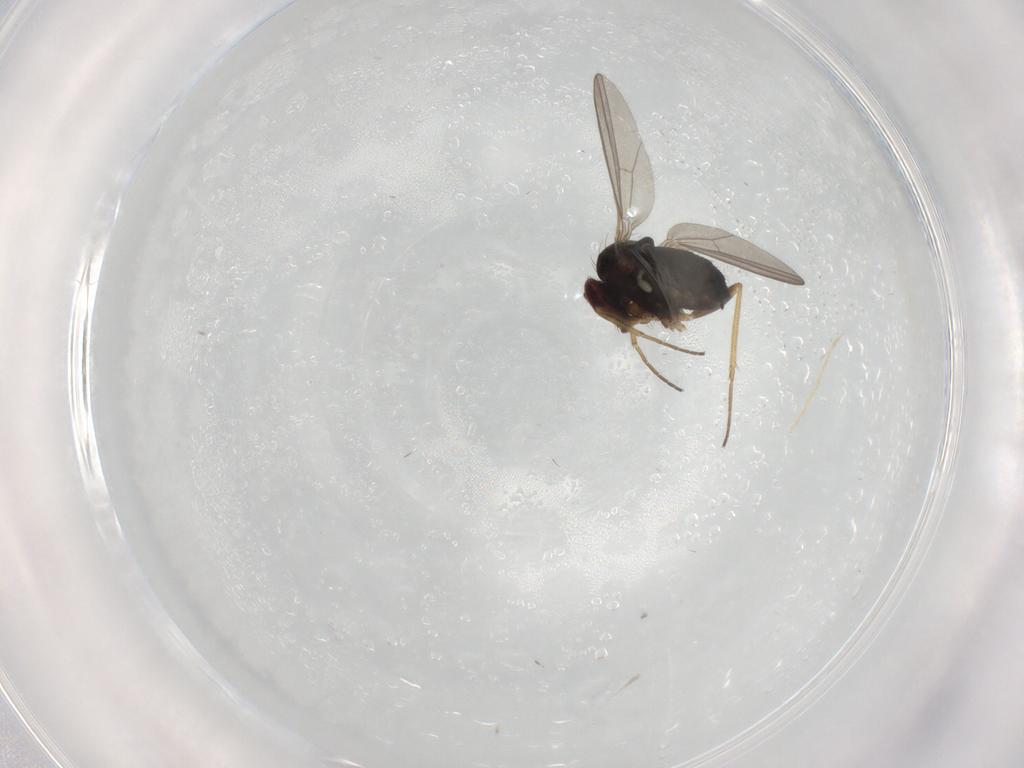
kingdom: Animalia
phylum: Arthropoda
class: Insecta
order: Diptera
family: Dolichopodidae
